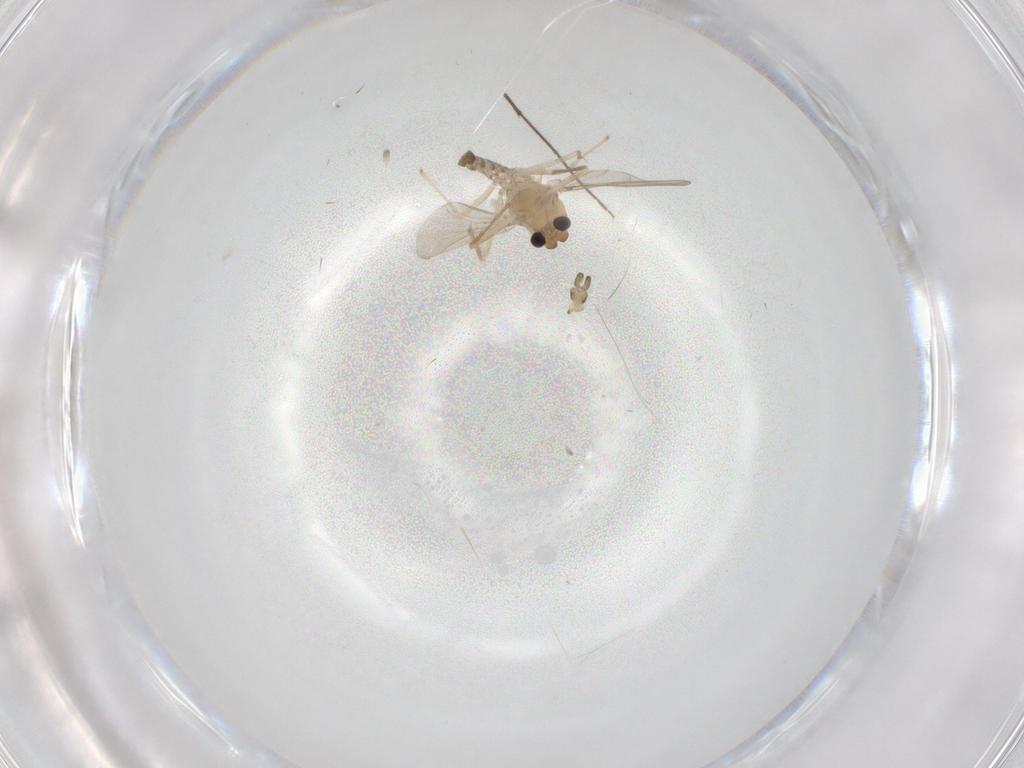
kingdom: Animalia
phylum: Arthropoda
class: Insecta
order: Diptera
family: Chironomidae
